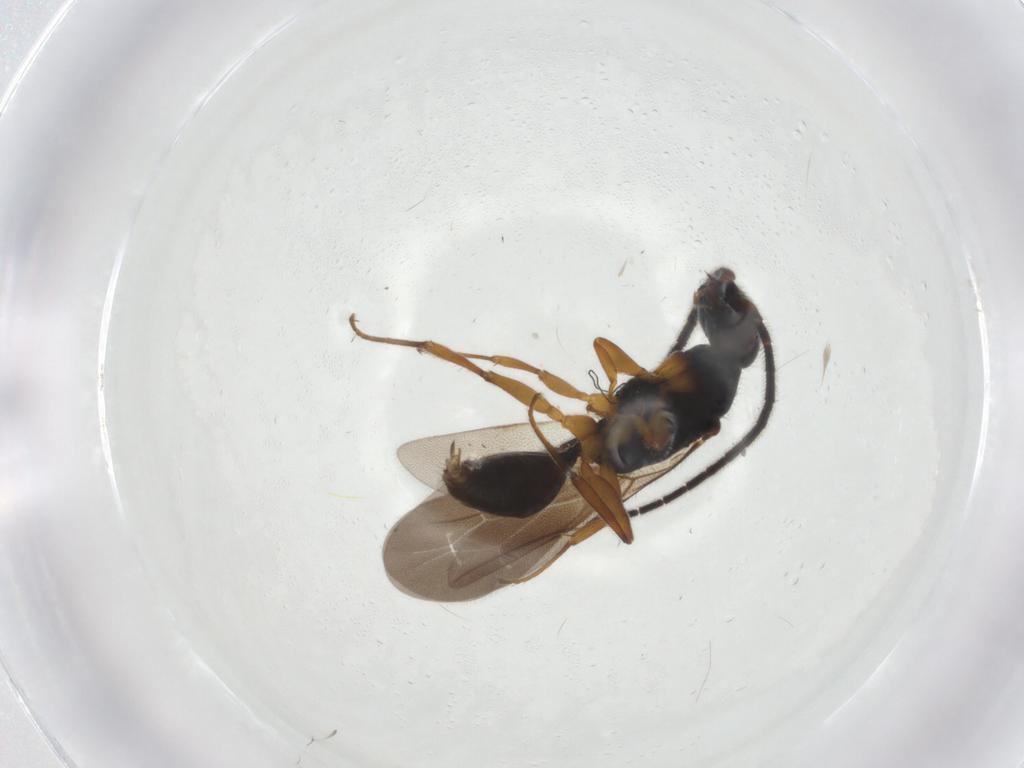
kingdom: Animalia
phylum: Arthropoda
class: Insecta
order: Hymenoptera
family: Bethylidae
